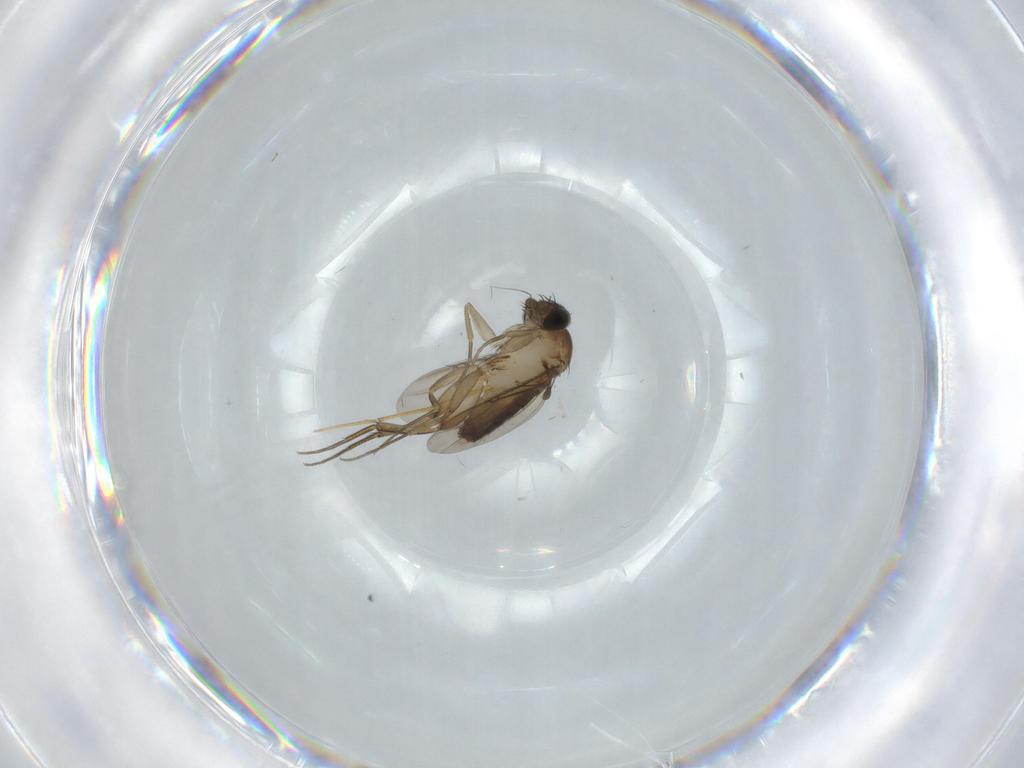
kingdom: Animalia
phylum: Arthropoda
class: Insecta
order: Diptera
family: Phoridae
